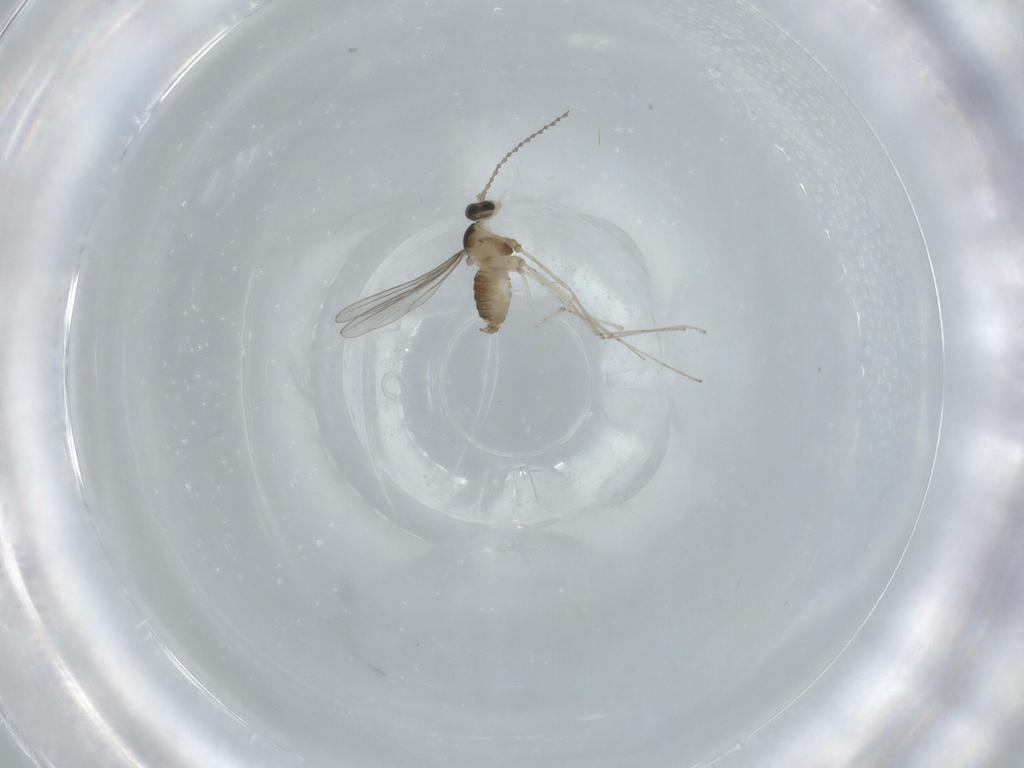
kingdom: Animalia
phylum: Arthropoda
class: Insecta
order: Diptera
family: Cecidomyiidae
